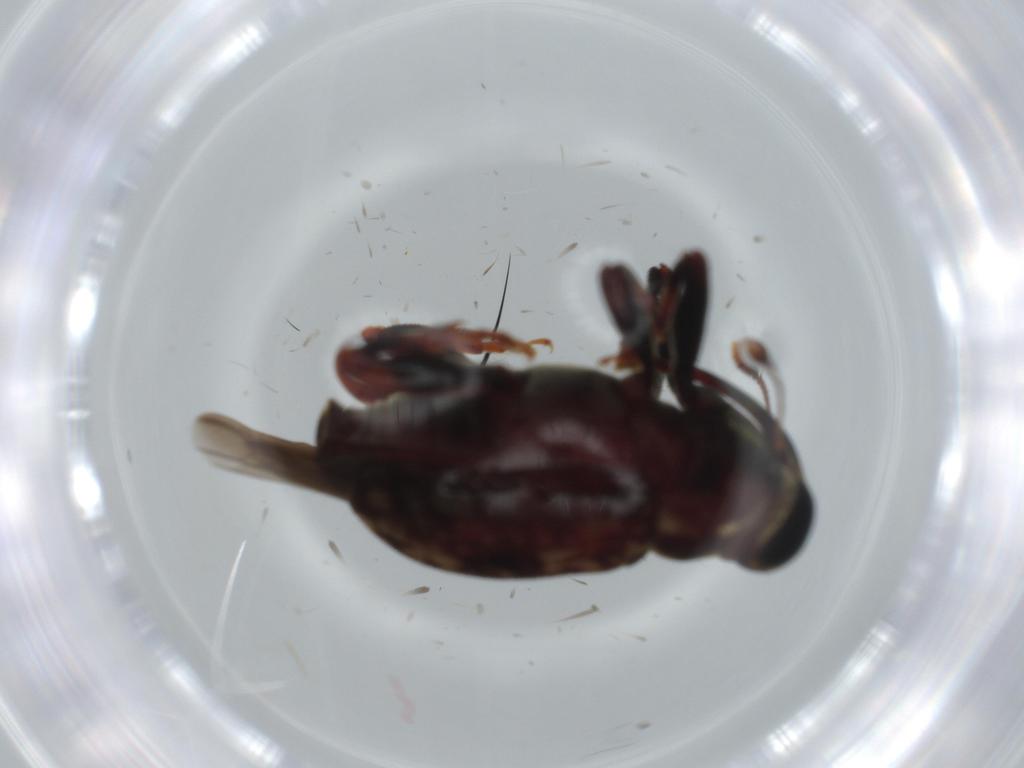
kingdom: Animalia
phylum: Arthropoda
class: Insecta
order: Coleoptera
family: Curculionidae
